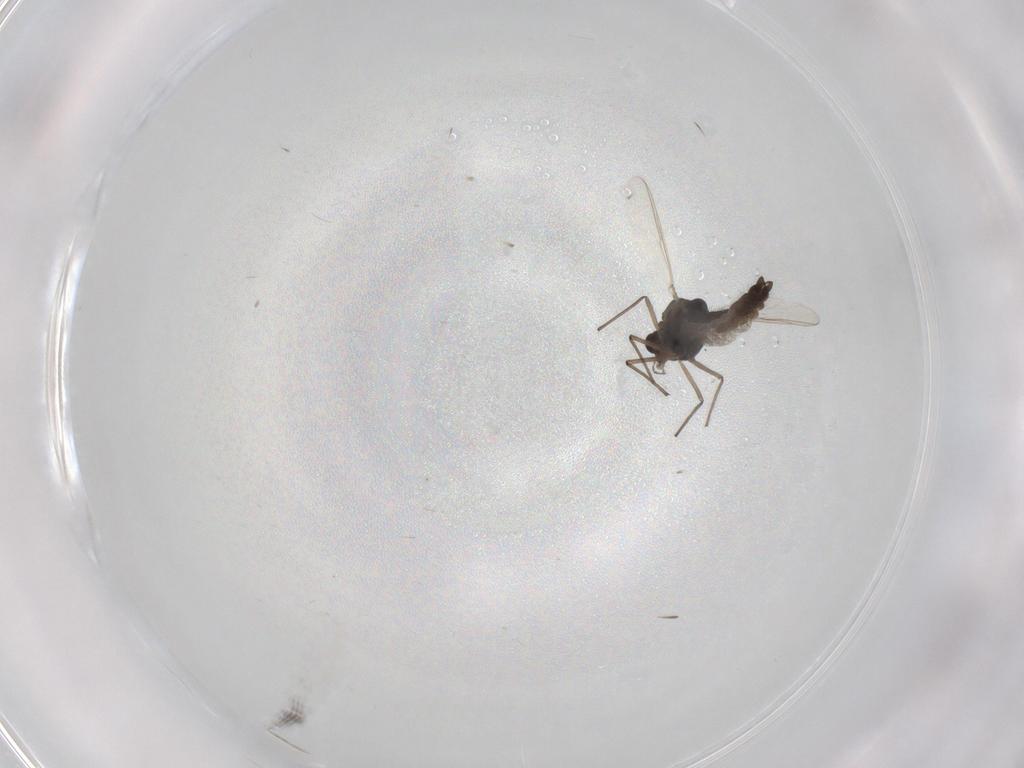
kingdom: Animalia
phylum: Arthropoda
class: Insecta
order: Diptera
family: Chironomidae
